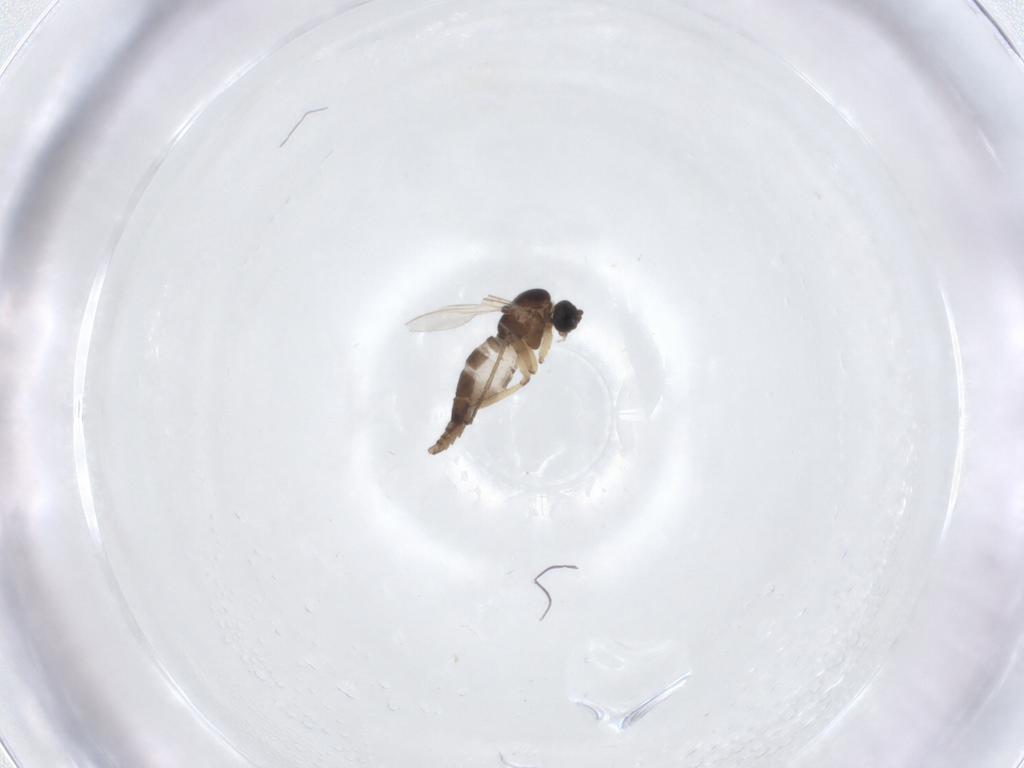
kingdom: Animalia
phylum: Arthropoda
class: Insecta
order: Diptera
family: Sciaridae
